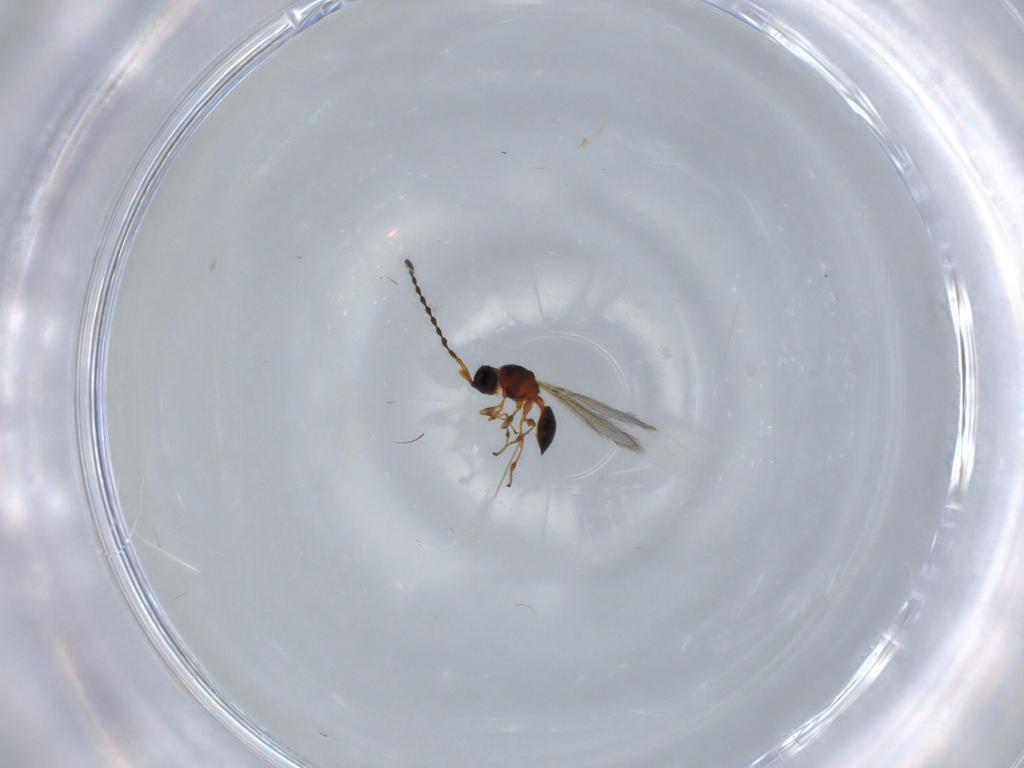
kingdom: Animalia
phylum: Arthropoda
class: Insecta
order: Hymenoptera
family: Diapriidae
